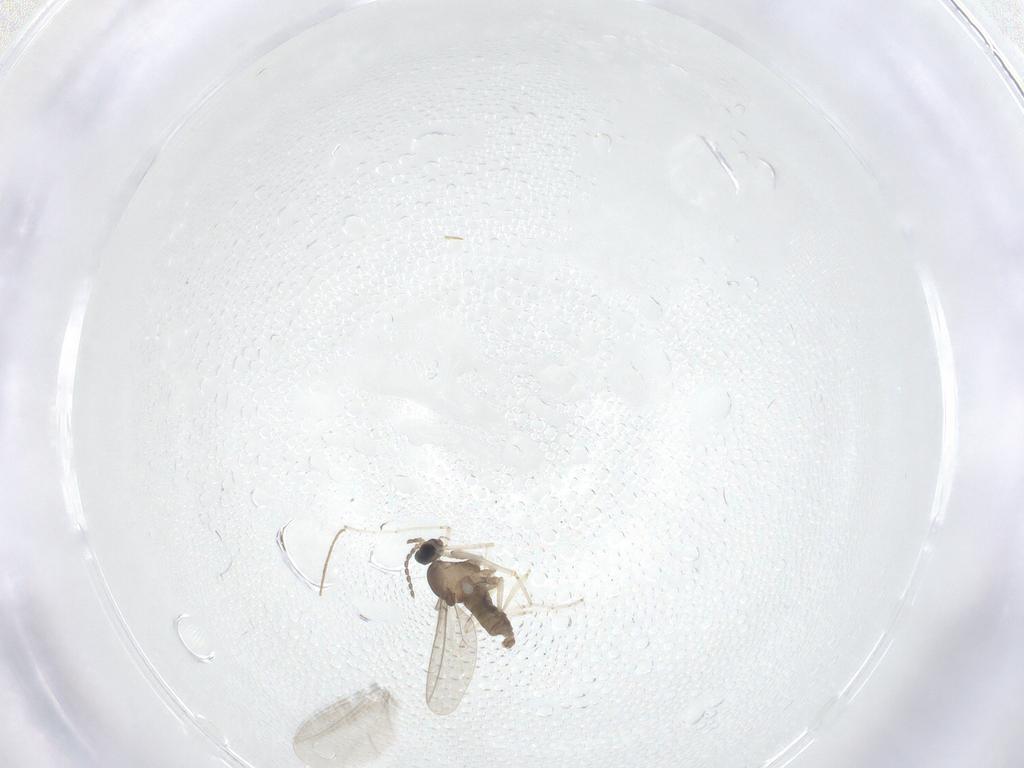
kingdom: Animalia
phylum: Arthropoda
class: Insecta
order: Diptera
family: Cecidomyiidae
